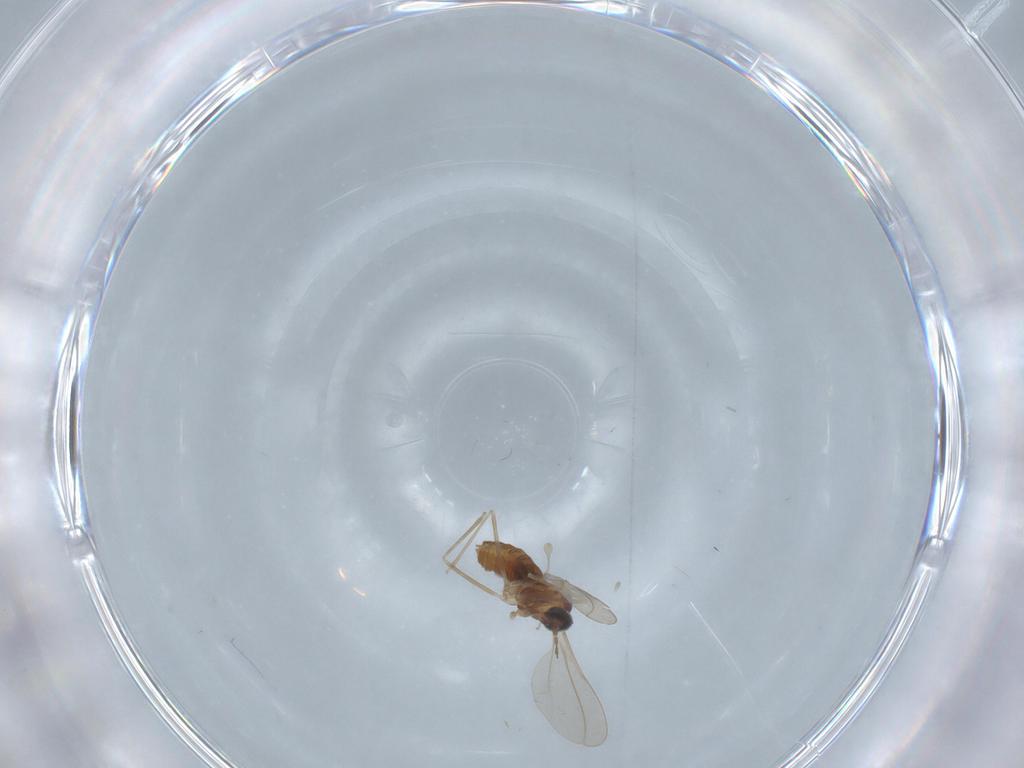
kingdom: Animalia
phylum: Arthropoda
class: Insecta
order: Diptera
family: Cecidomyiidae
